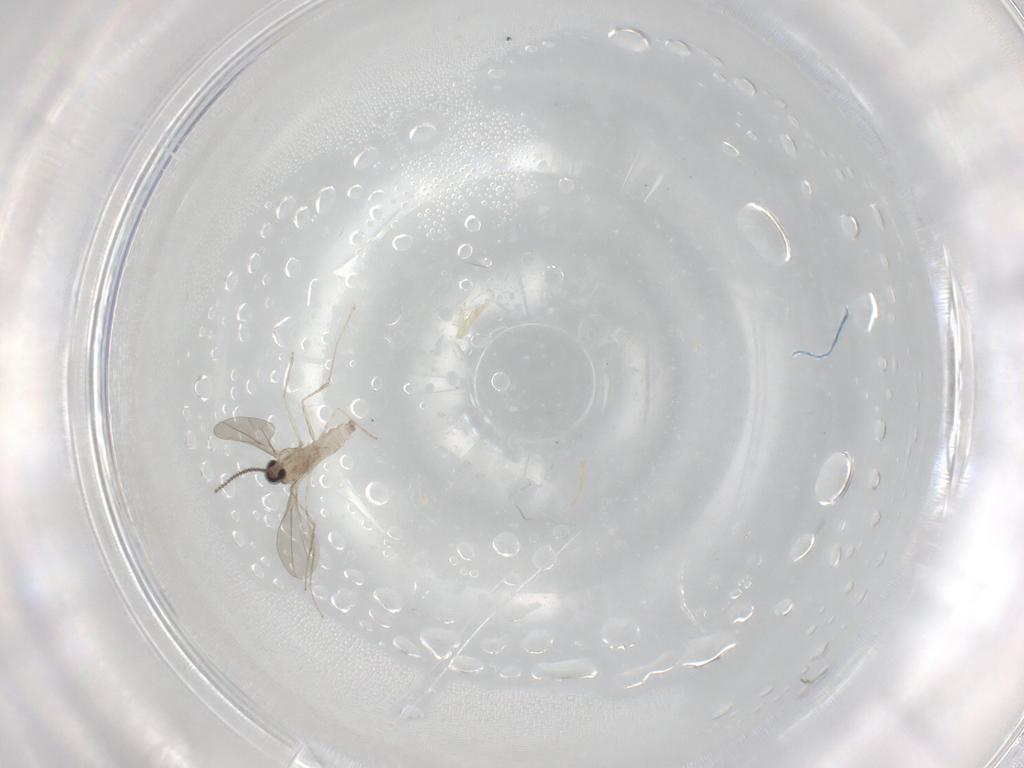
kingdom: Animalia
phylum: Arthropoda
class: Insecta
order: Diptera
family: Cecidomyiidae
